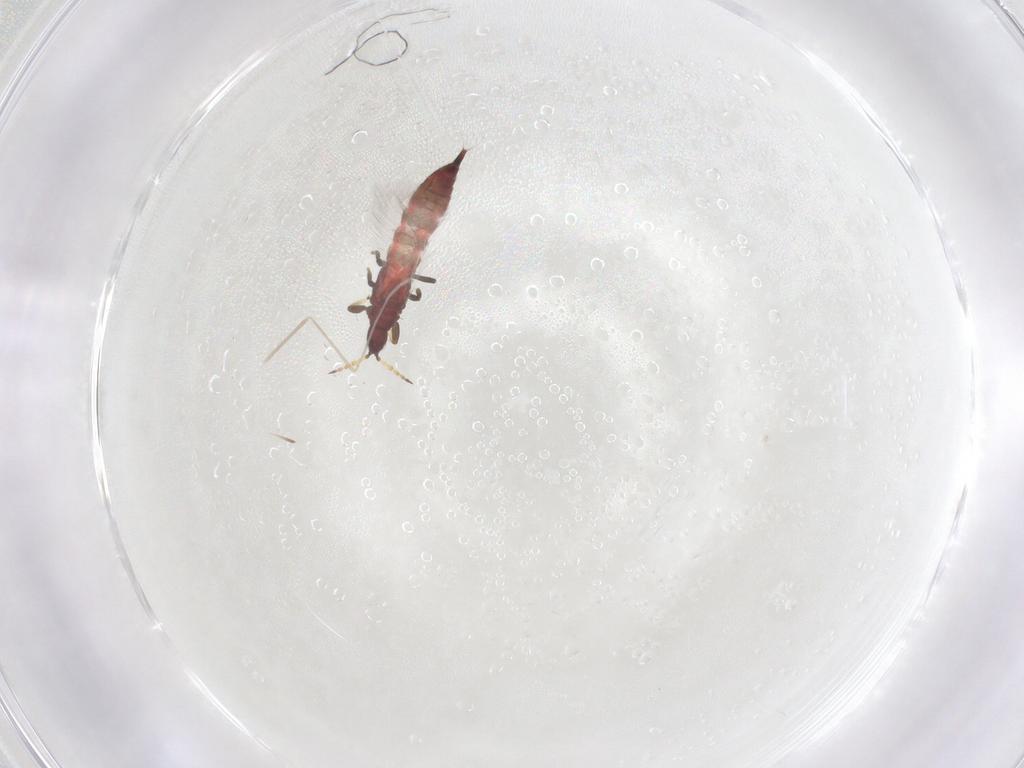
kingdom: Animalia
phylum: Arthropoda
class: Insecta
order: Thysanoptera
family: Phlaeothripidae
